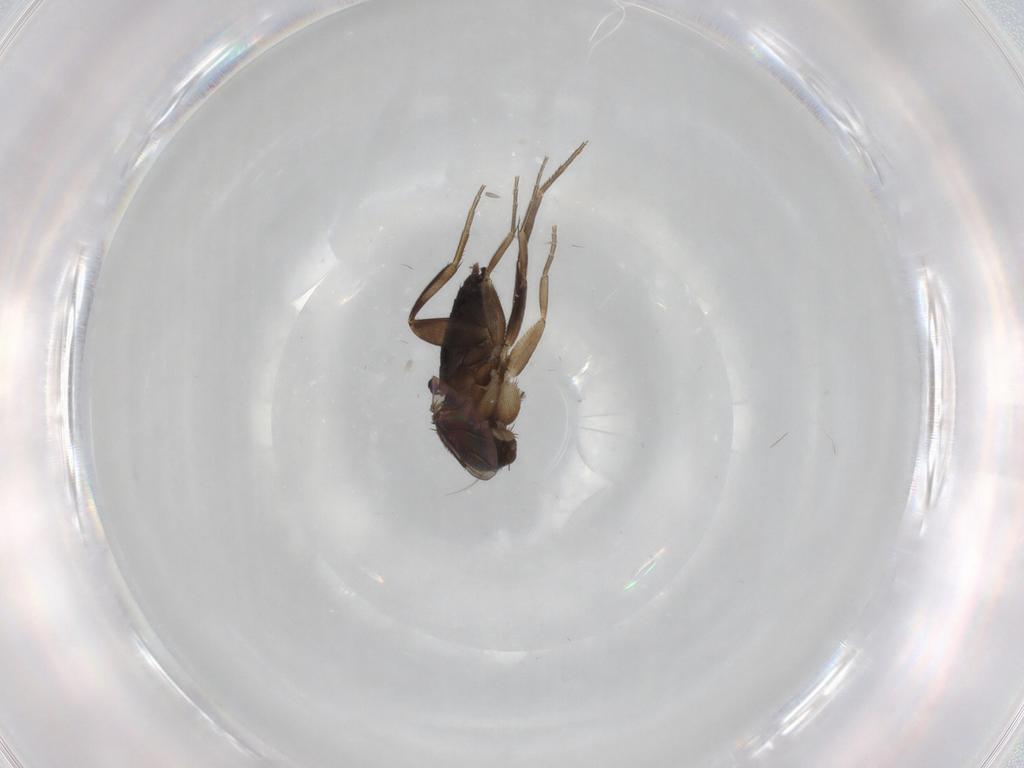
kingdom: Animalia
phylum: Arthropoda
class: Insecta
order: Diptera
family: Phoridae
